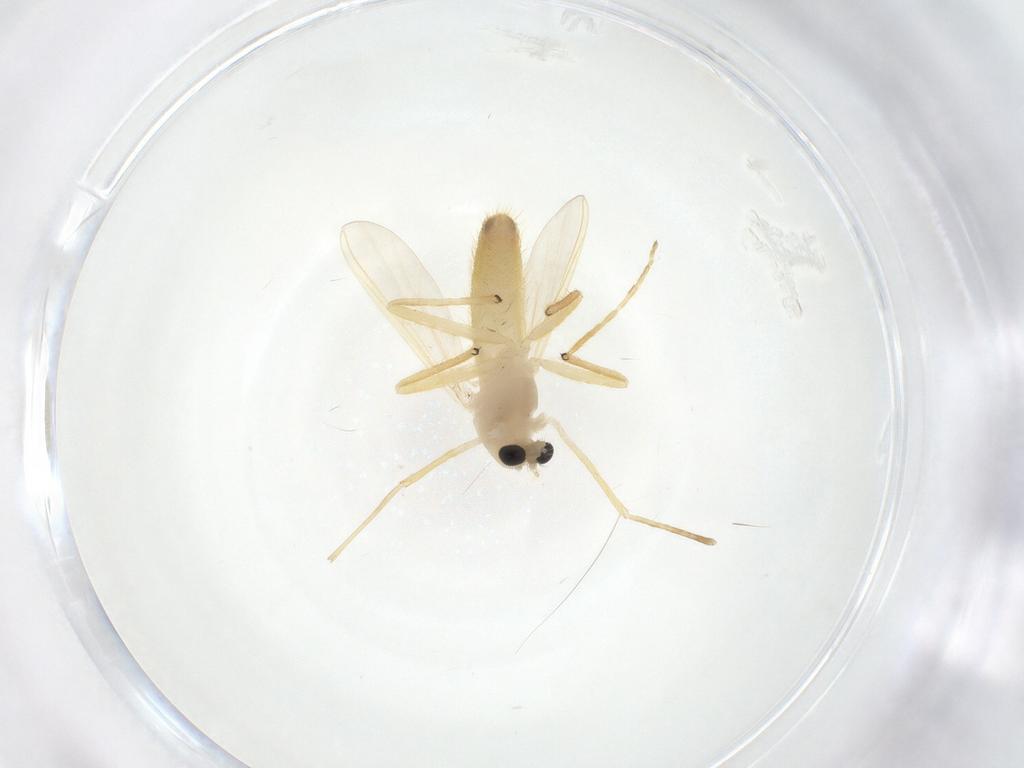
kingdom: Animalia
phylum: Arthropoda
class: Insecta
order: Diptera
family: Chironomidae
